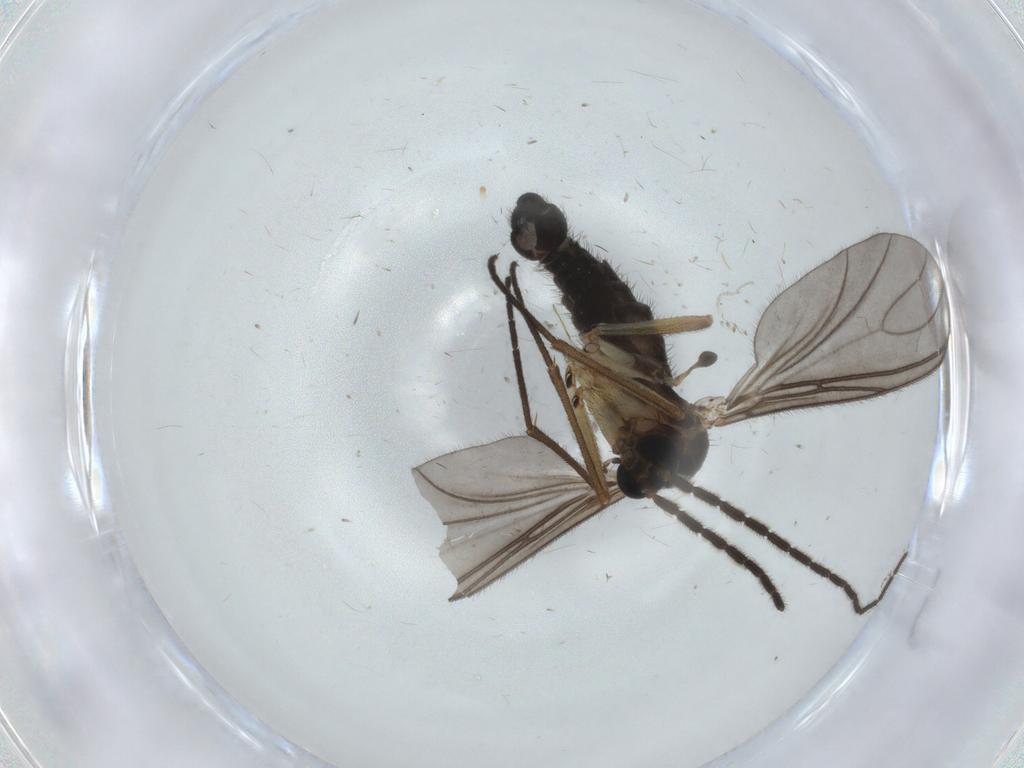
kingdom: Animalia
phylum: Arthropoda
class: Insecta
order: Diptera
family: Sciaridae
